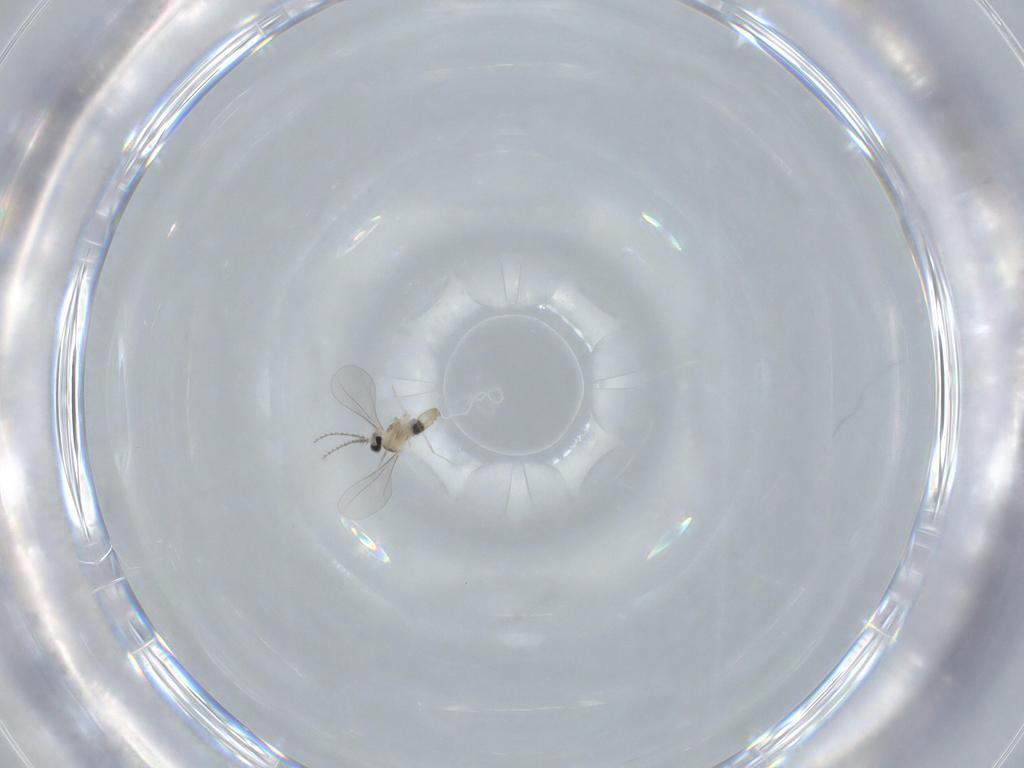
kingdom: Animalia
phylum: Arthropoda
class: Insecta
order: Diptera
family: Cecidomyiidae
